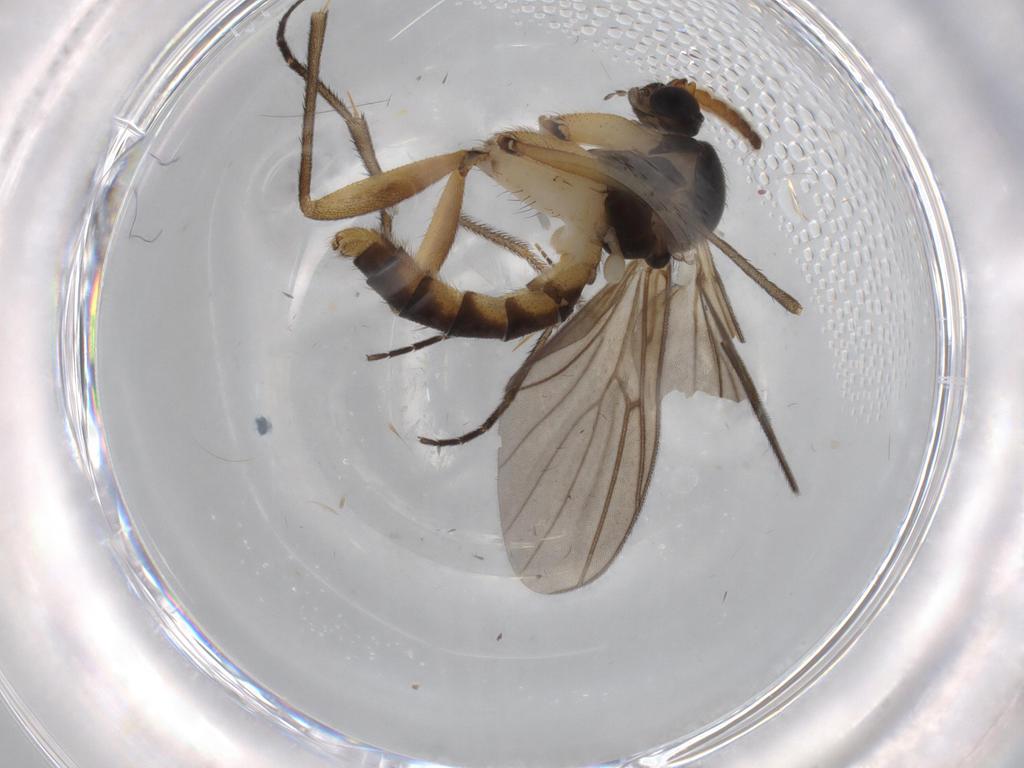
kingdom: Animalia
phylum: Arthropoda
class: Insecta
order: Diptera
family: Mycetophilidae
